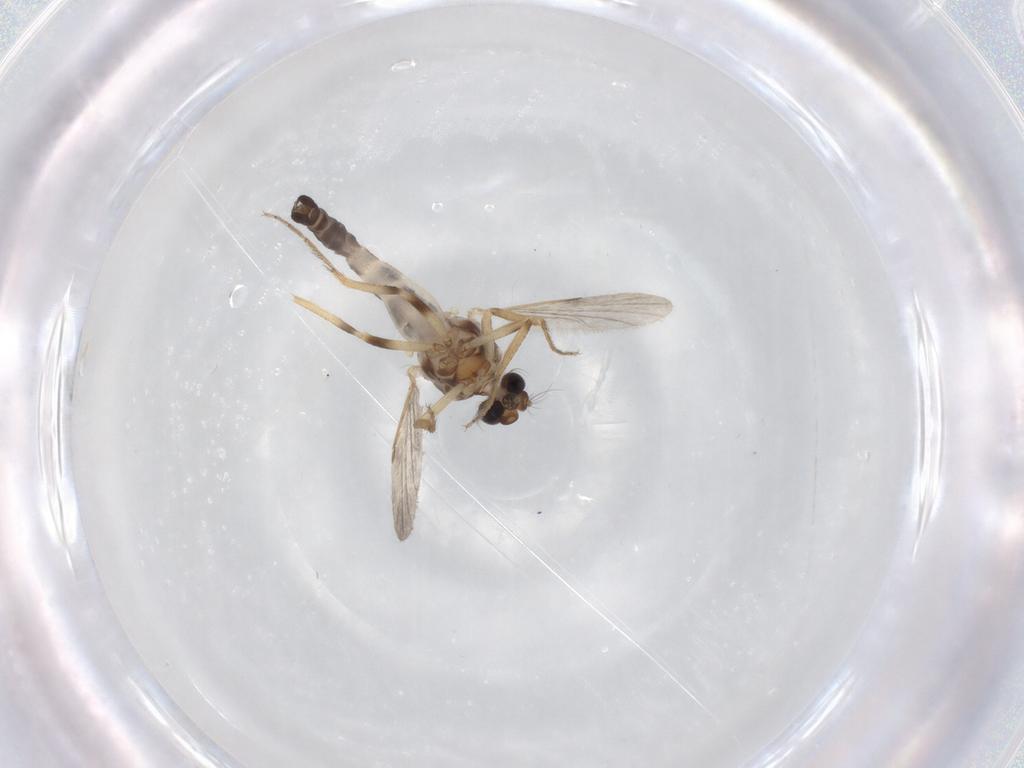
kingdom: Animalia
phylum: Arthropoda
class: Insecta
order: Diptera
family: Ceratopogonidae
